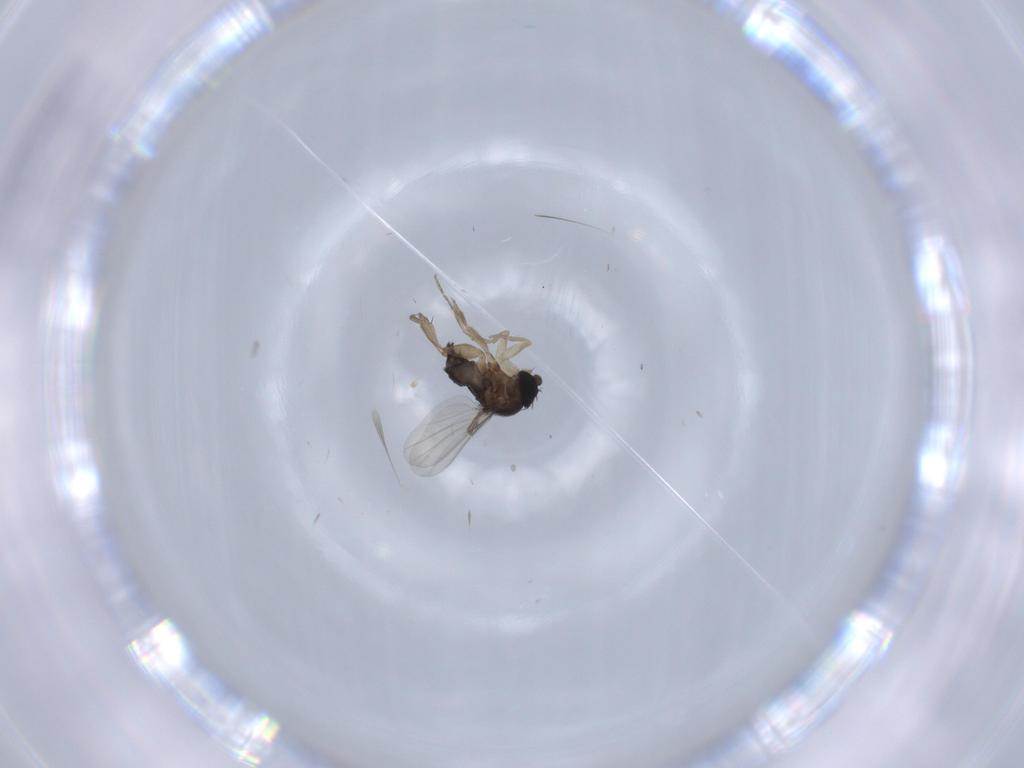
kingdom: Animalia
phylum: Arthropoda
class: Insecta
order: Diptera
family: Phoridae
